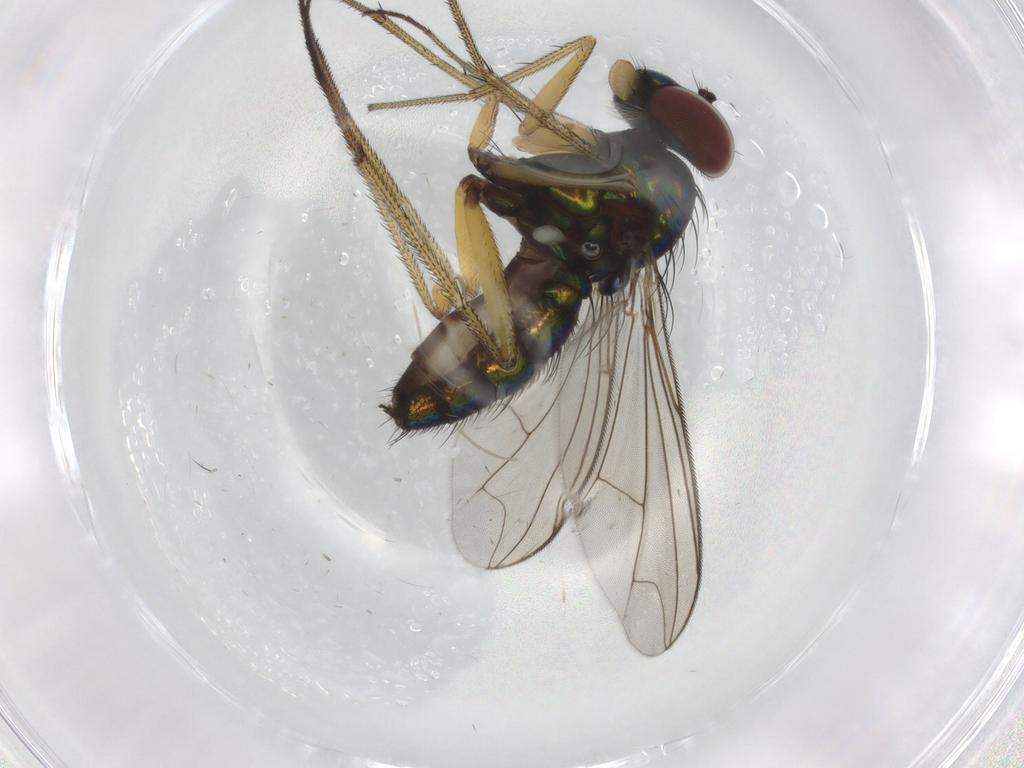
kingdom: Animalia
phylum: Arthropoda
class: Insecta
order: Diptera
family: Dolichopodidae
